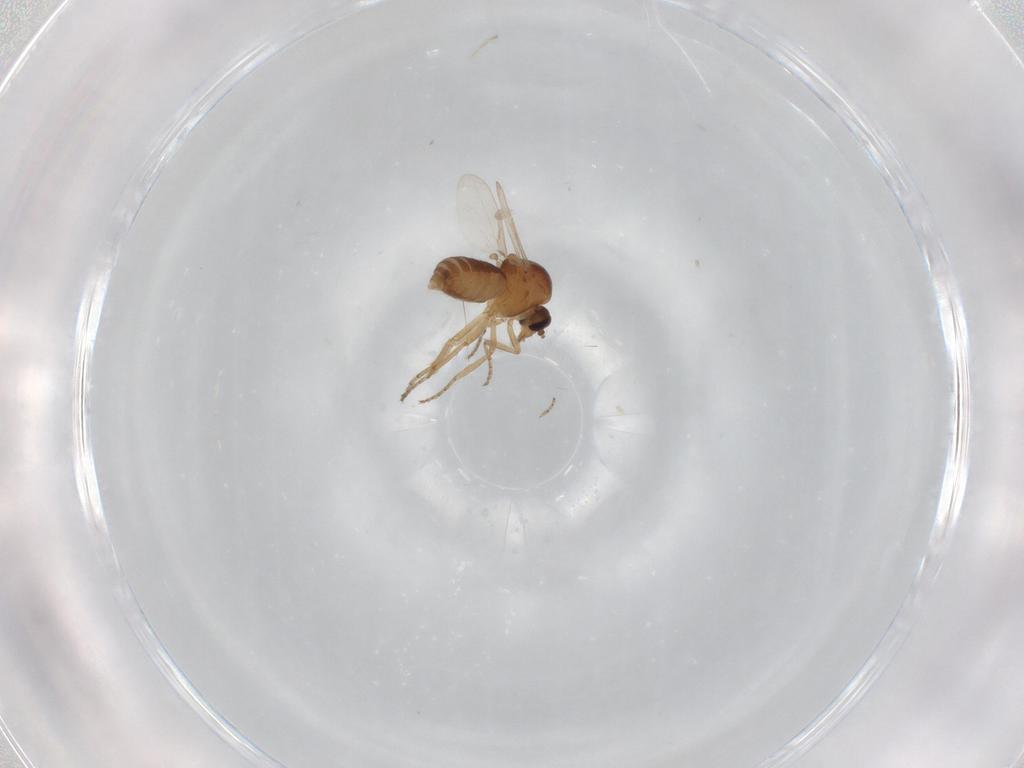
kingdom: Animalia
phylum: Arthropoda
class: Insecta
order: Diptera
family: Ceratopogonidae
